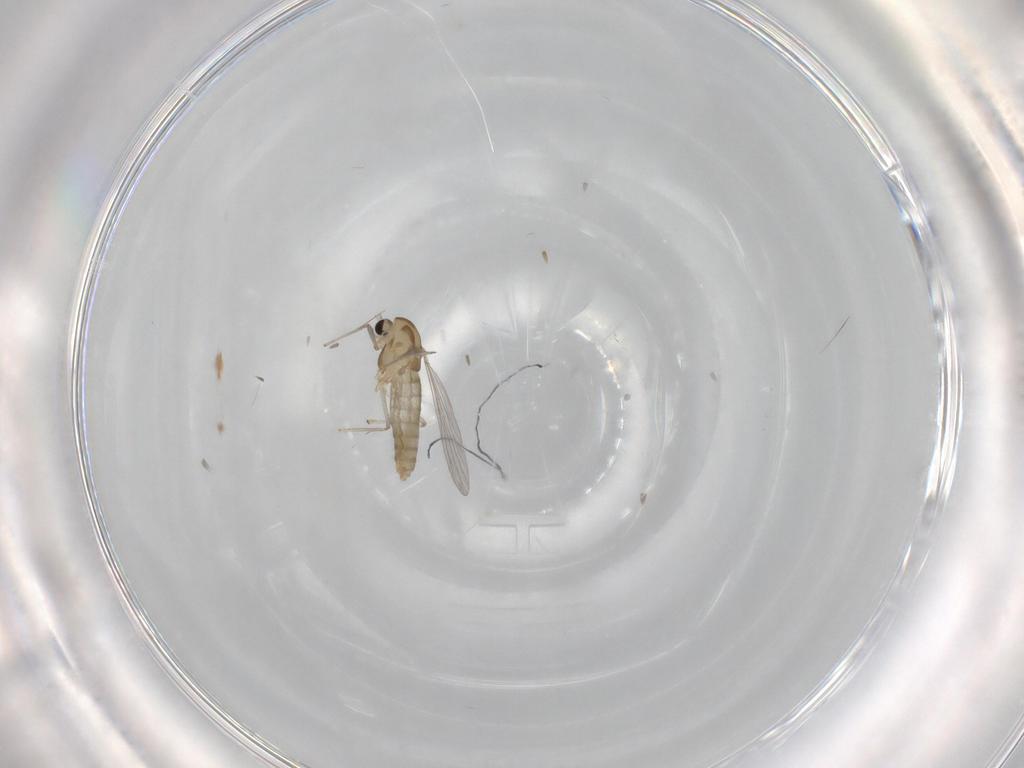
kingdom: Animalia
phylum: Arthropoda
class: Insecta
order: Diptera
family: Chironomidae
